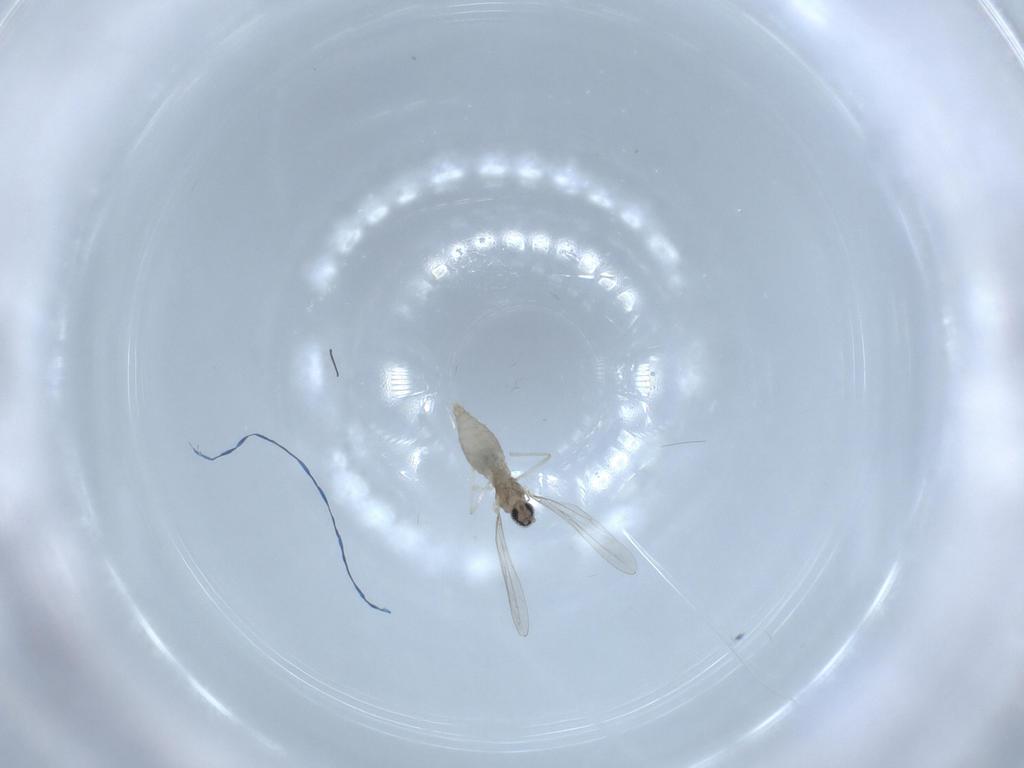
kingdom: Animalia
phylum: Arthropoda
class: Insecta
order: Diptera
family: Cecidomyiidae
